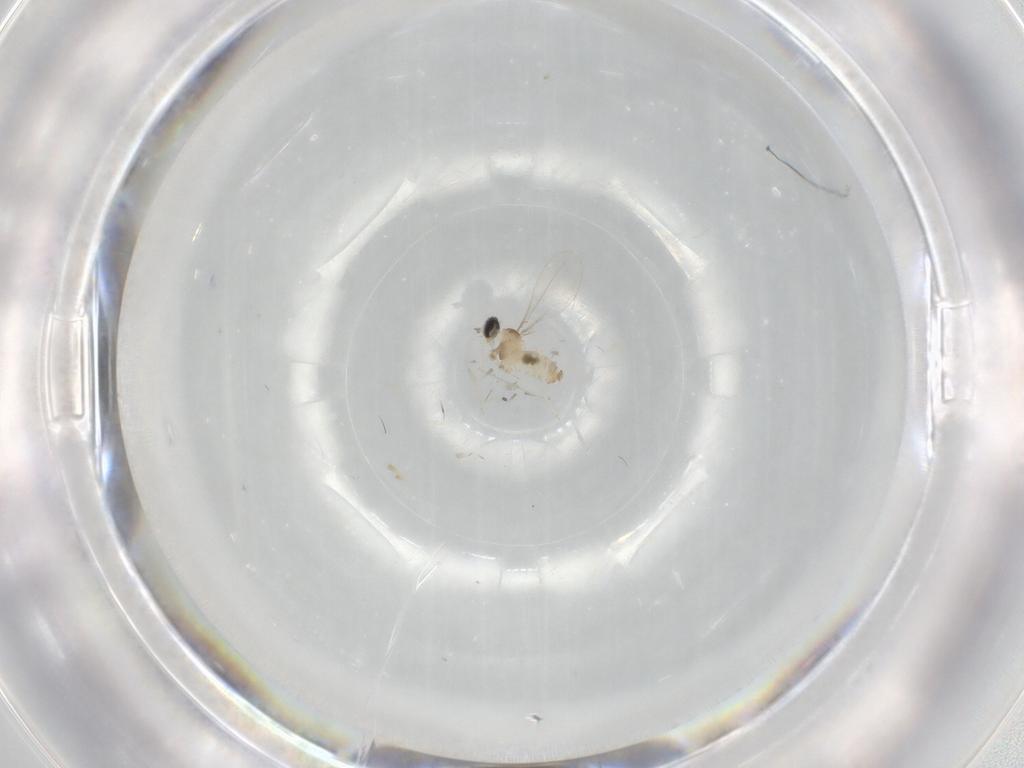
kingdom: Animalia
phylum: Arthropoda
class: Insecta
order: Diptera
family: Cecidomyiidae
